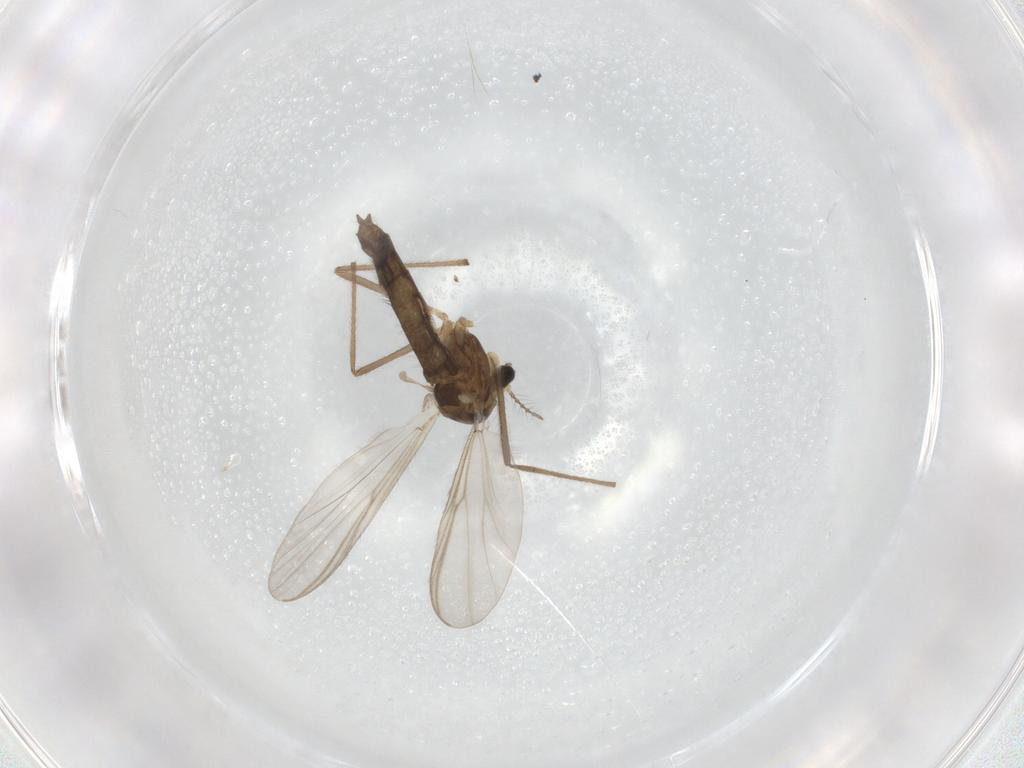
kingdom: Animalia
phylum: Arthropoda
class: Insecta
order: Diptera
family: Chironomidae
